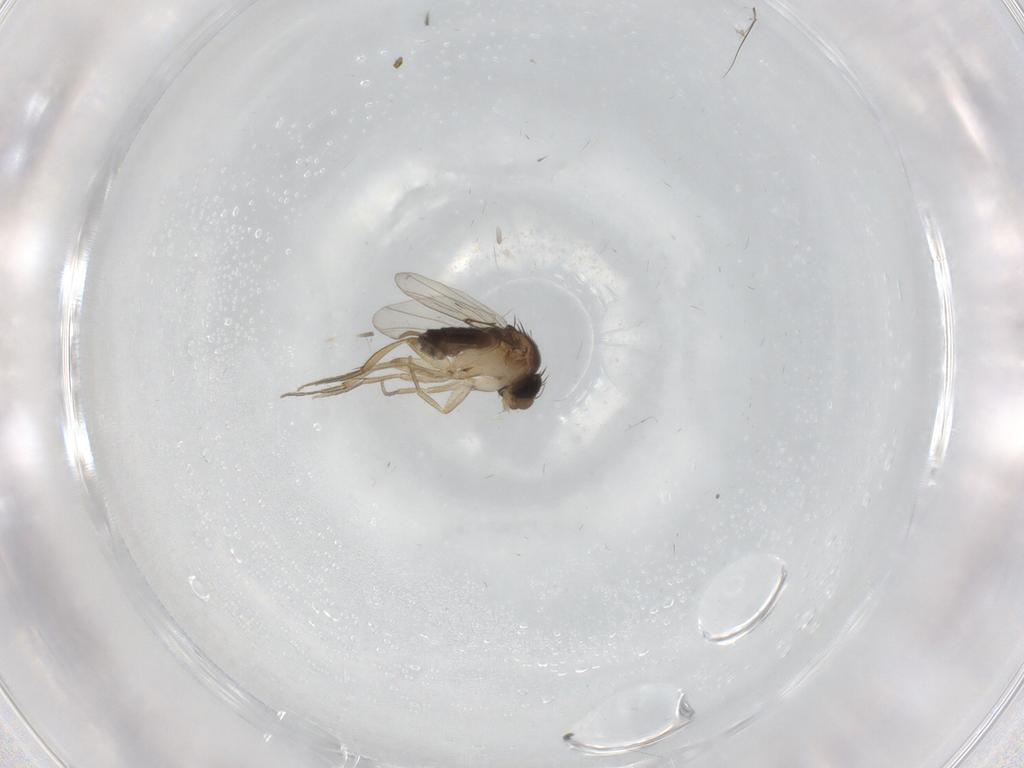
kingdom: Animalia
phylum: Arthropoda
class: Insecta
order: Diptera
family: Phoridae
